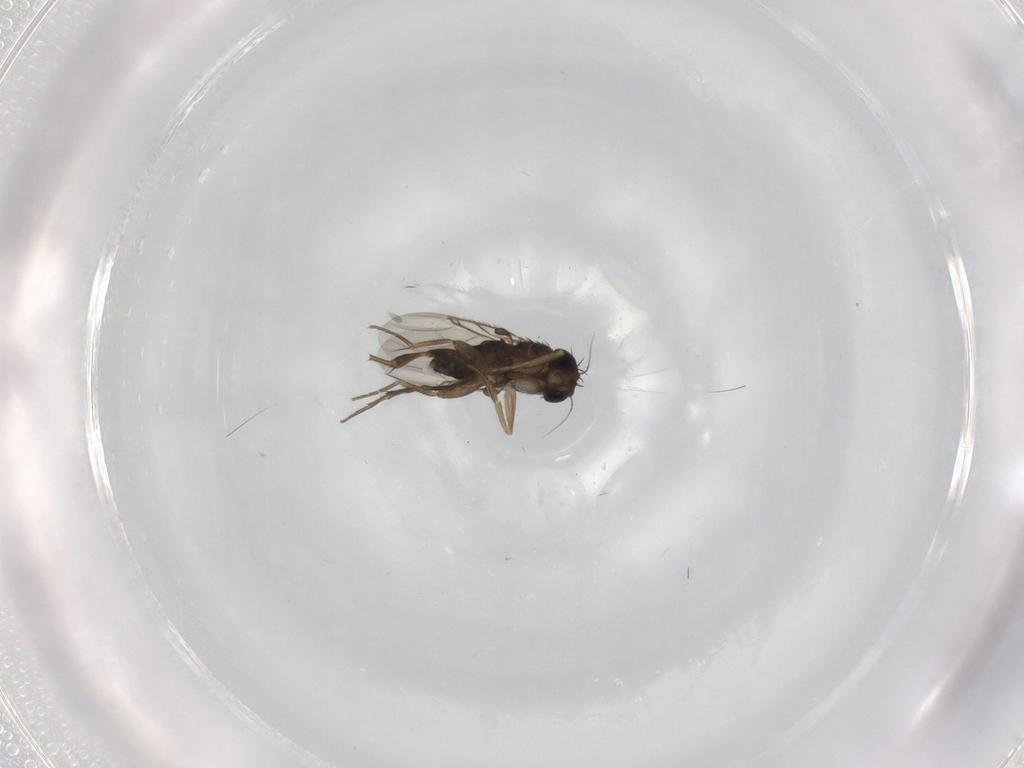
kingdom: Animalia
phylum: Arthropoda
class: Insecta
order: Diptera
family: Phoridae
